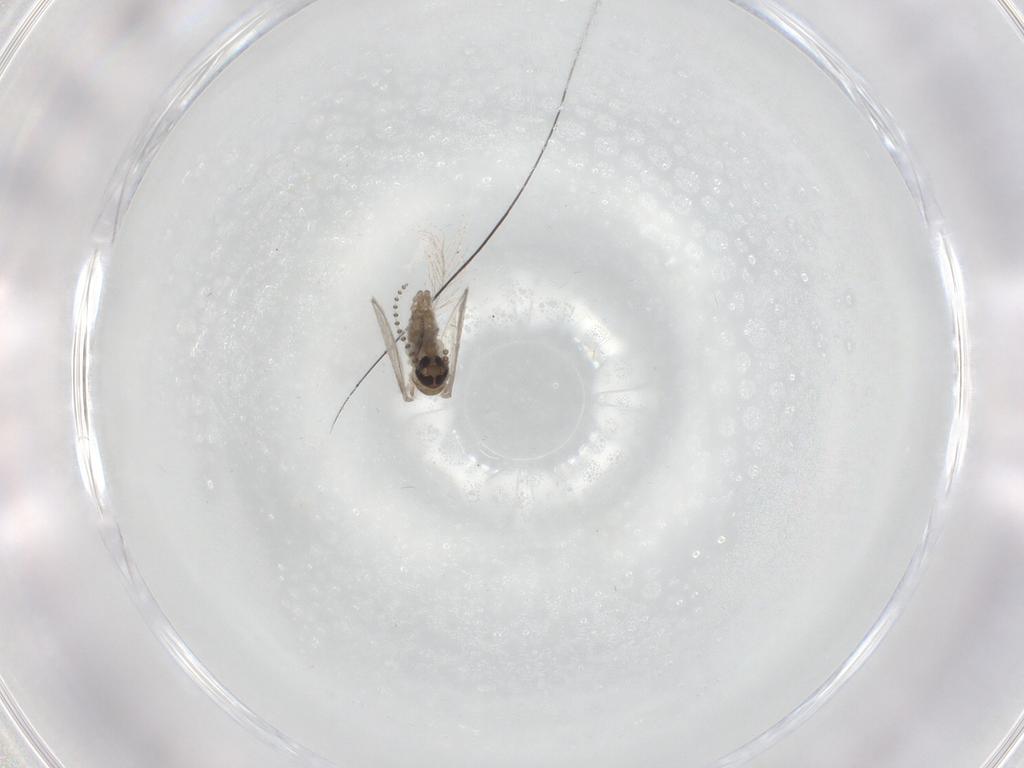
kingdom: Animalia
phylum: Arthropoda
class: Insecta
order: Diptera
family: Psychodidae
